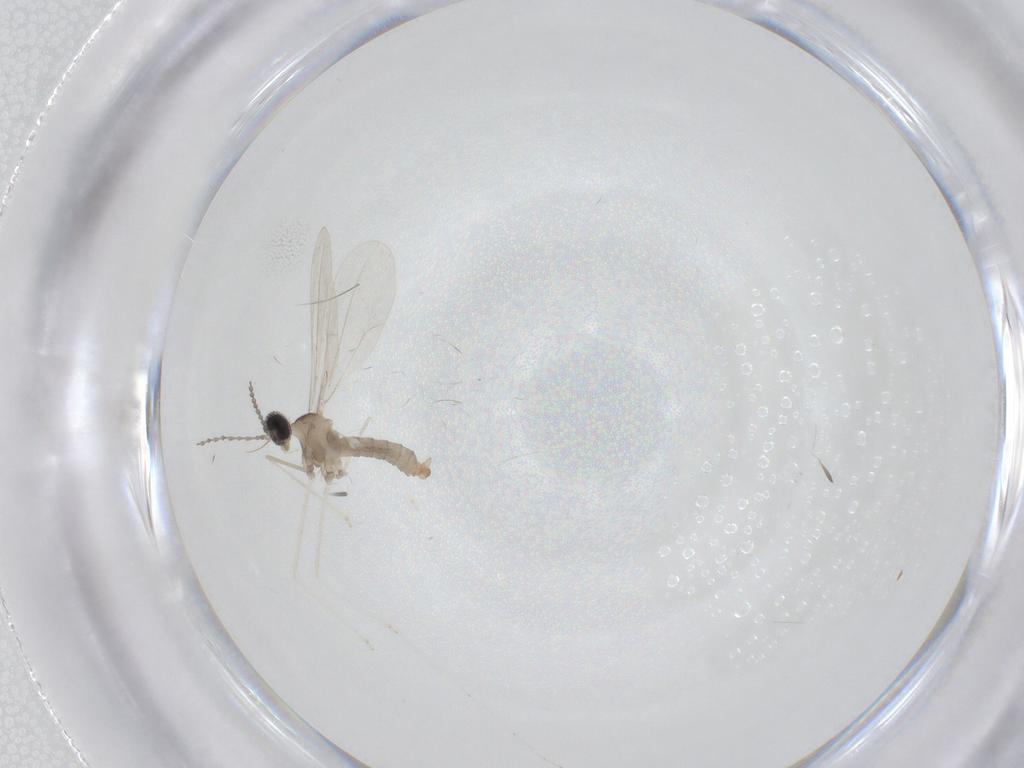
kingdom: Animalia
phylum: Arthropoda
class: Insecta
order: Diptera
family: Cecidomyiidae
